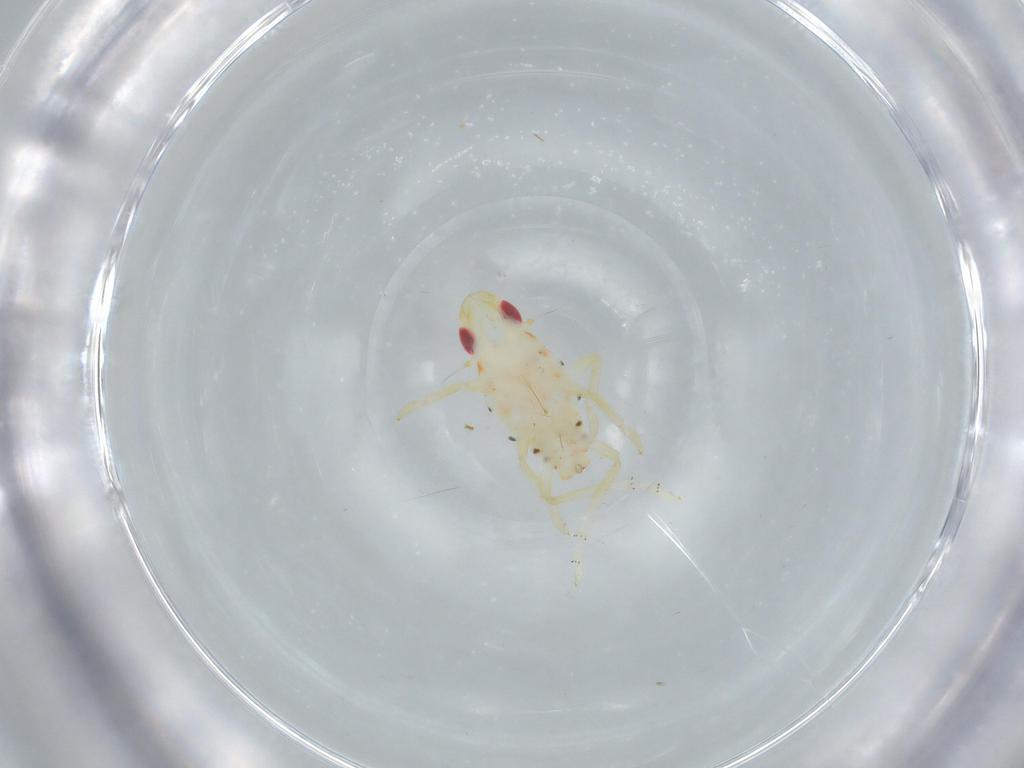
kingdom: Animalia
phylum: Arthropoda
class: Insecta
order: Hemiptera
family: Tropiduchidae
